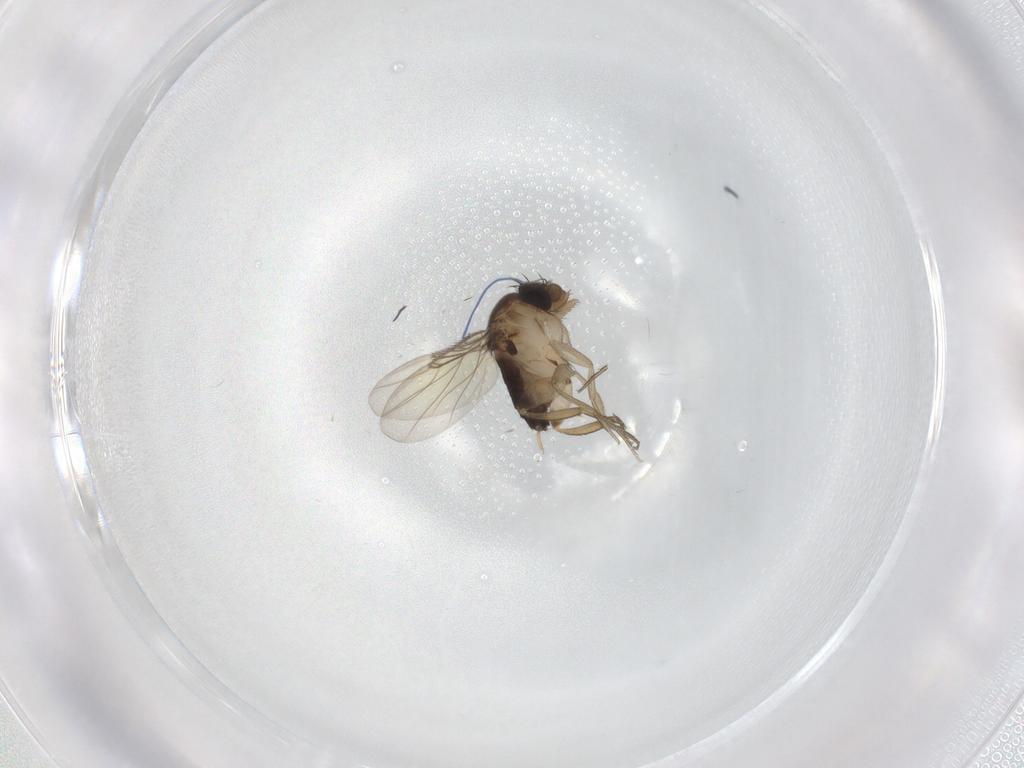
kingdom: Animalia
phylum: Arthropoda
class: Insecta
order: Diptera
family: Phoridae
